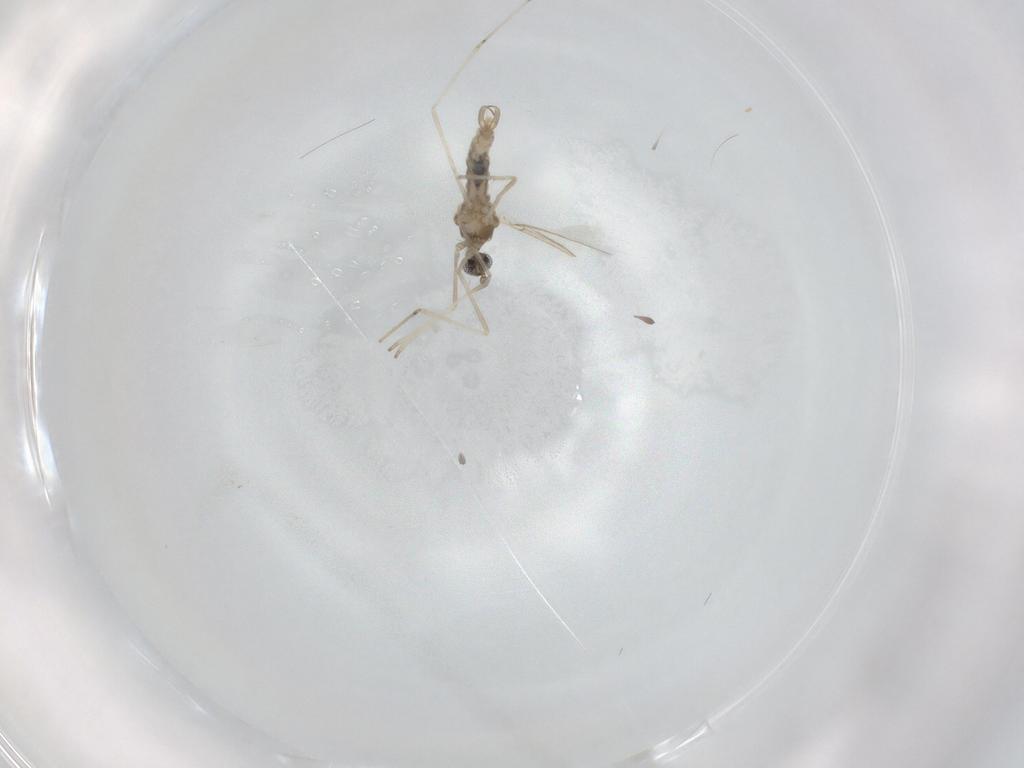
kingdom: Animalia
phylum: Arthropoda
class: Insecta
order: Diptera
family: Cecidomyiidae
